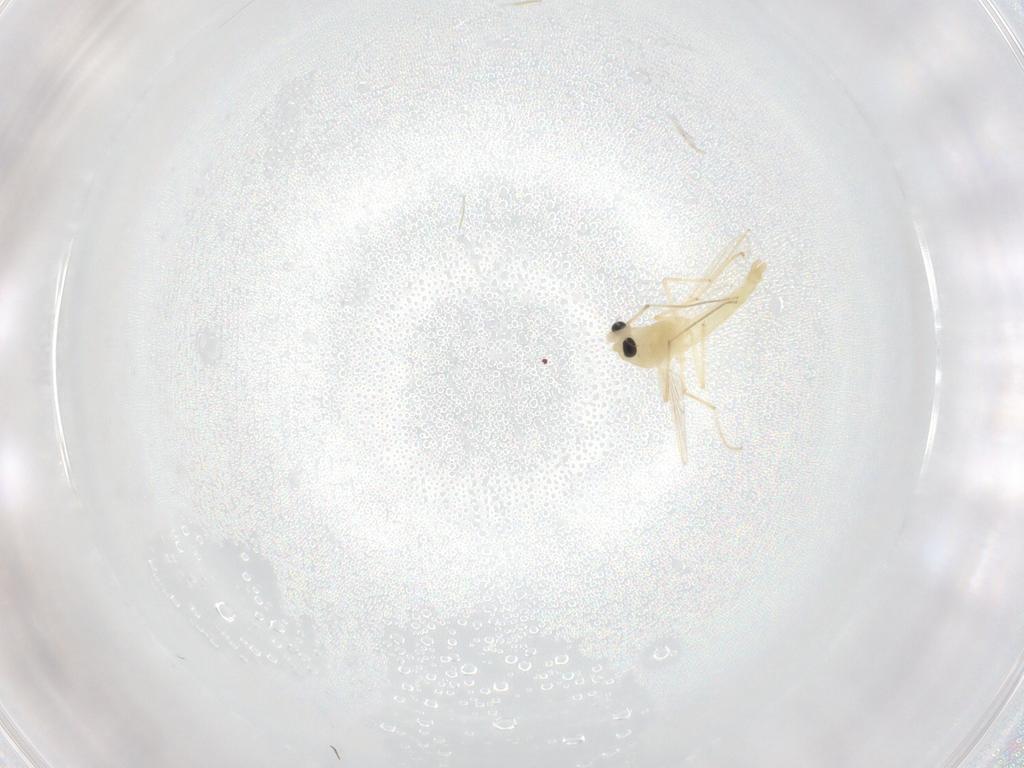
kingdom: Animalia
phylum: Arthropoda
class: Insecta
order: Diptera
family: Chironomidae
